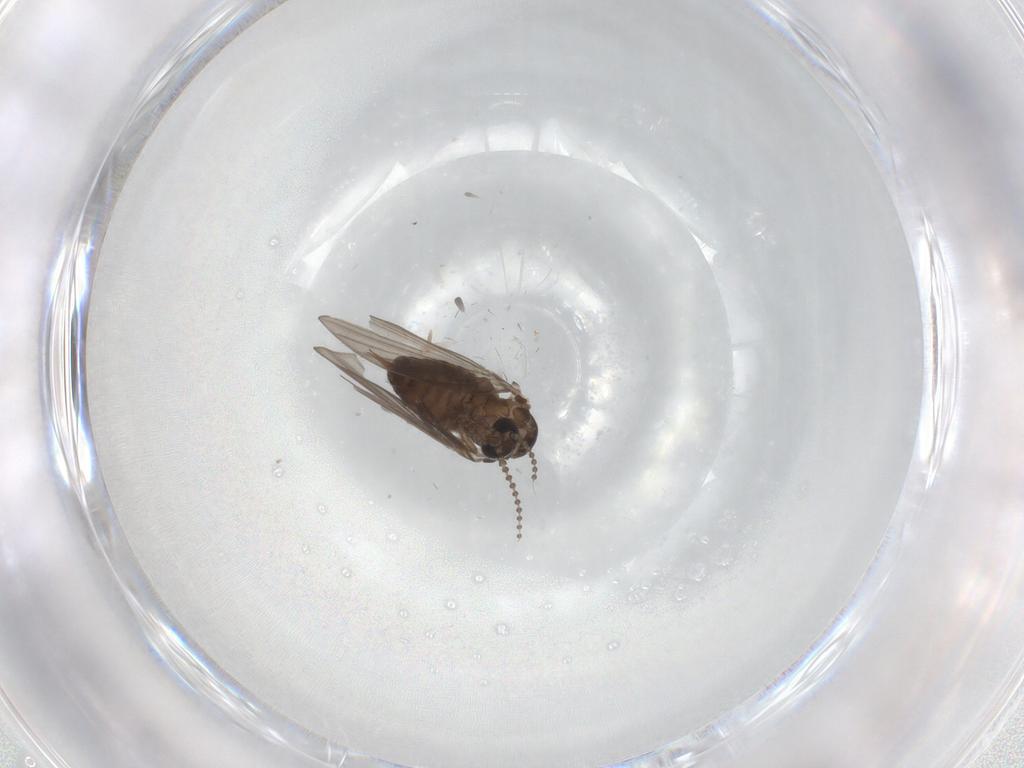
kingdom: Animalia
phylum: Arthropoda
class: Insecta
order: Diptera
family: Psychodidae
